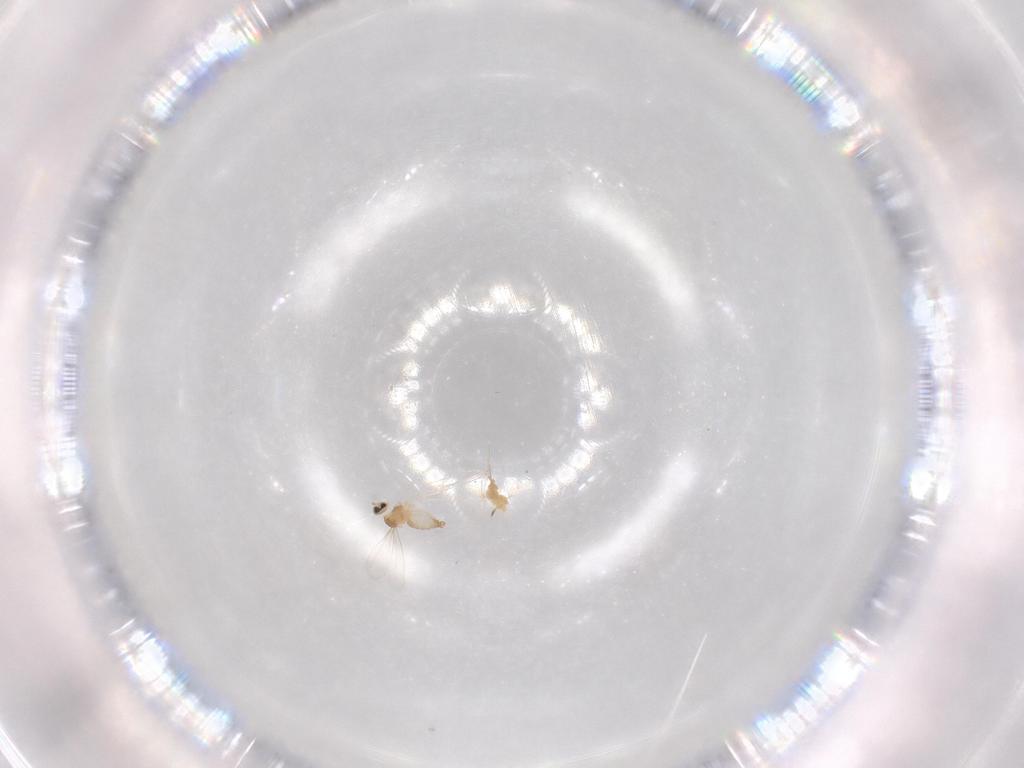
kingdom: Animalia
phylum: Arthropoda
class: Insecta
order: Diptera
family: Cecidomyiidae
